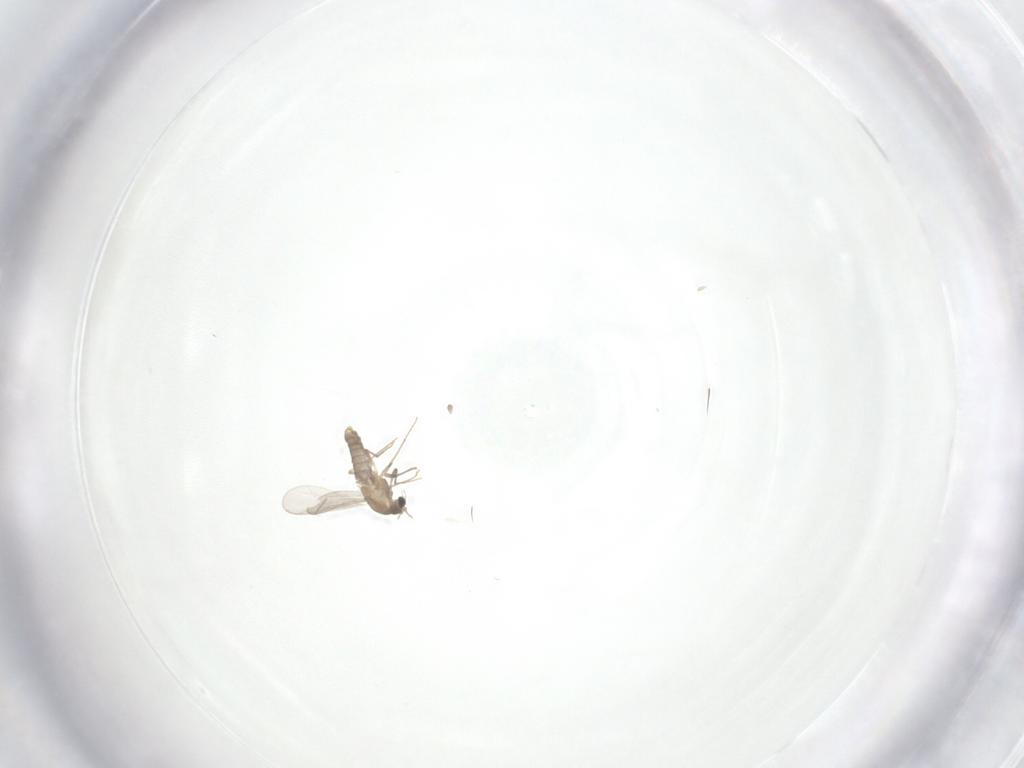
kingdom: Animalia
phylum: Arthropoda
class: Insecta
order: Diptera
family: Chironomidae
